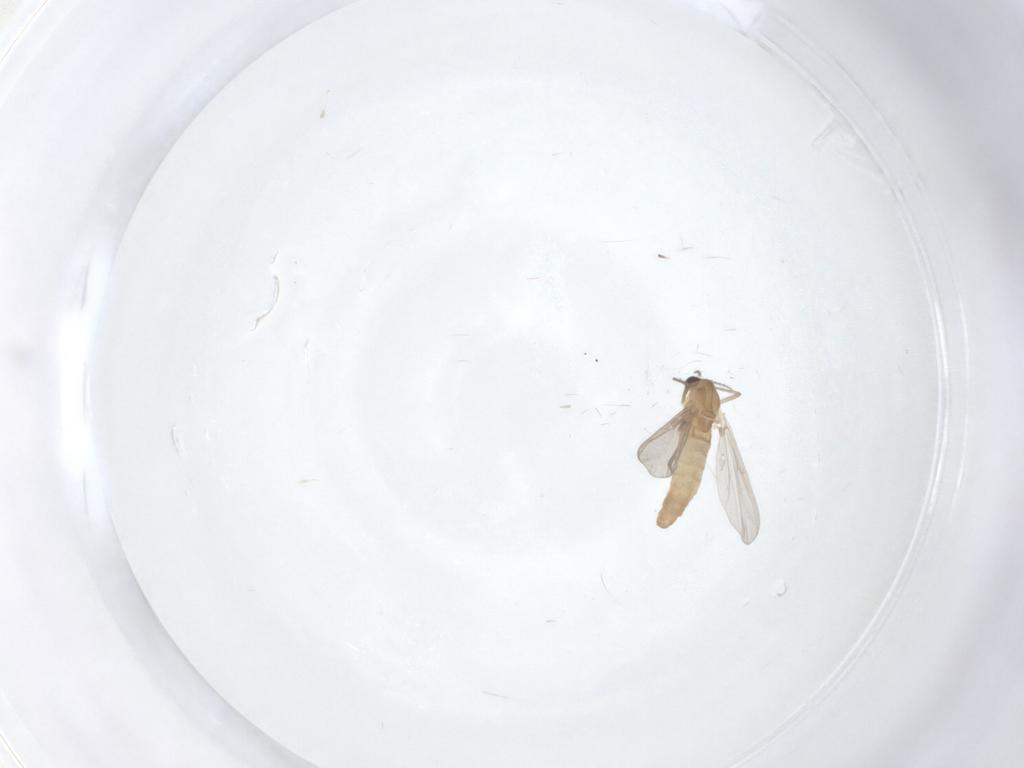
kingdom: Animalia
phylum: Arthropoda
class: Insecta
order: Diptera
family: Chironomidae
